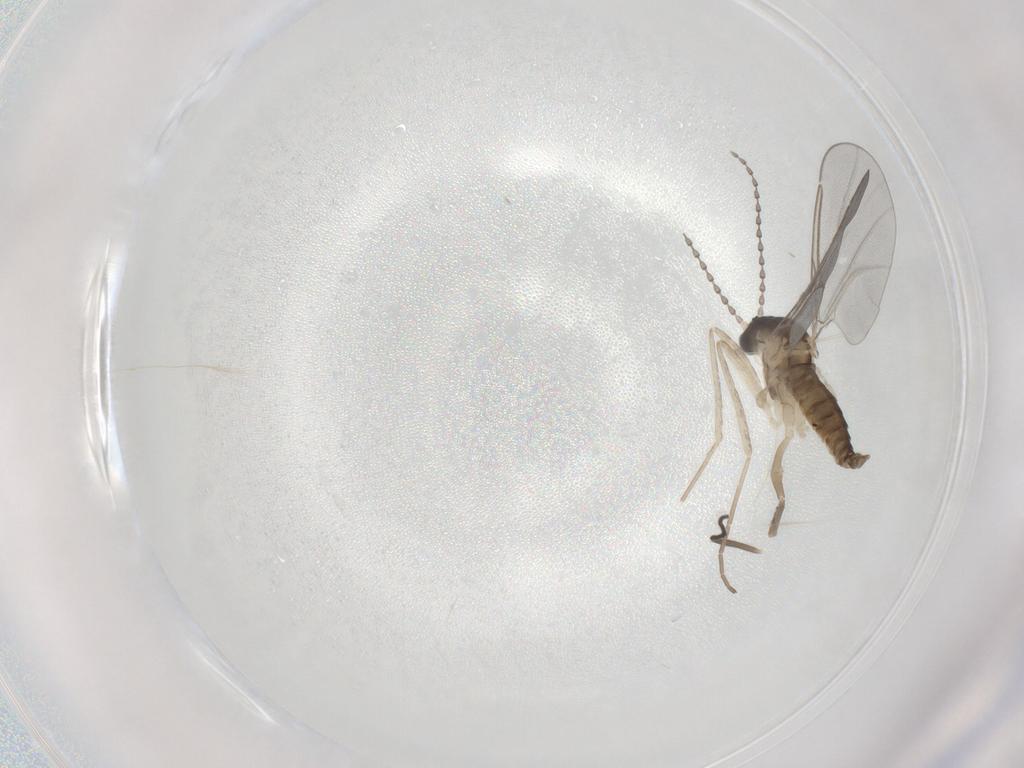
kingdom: Animalia
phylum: Arthropoda
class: Insecta
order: Diptera
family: Cecidomyiidae
